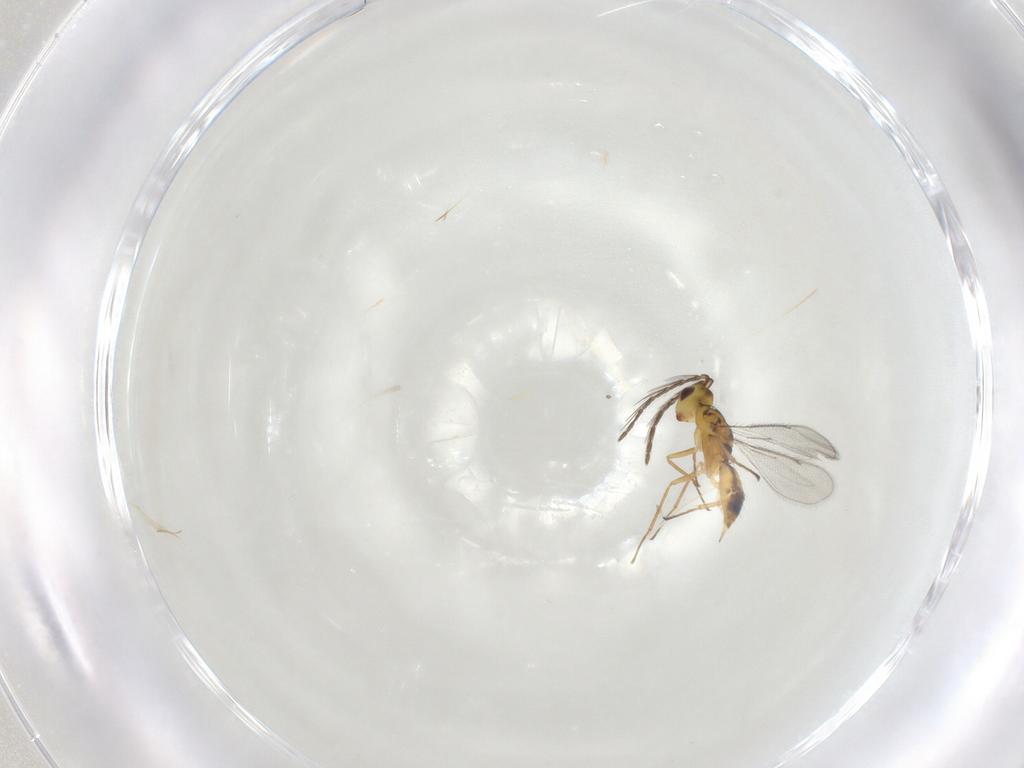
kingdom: Animalia
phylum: Arthropoda
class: Insecta
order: Hymenoptera
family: Eulophidae
